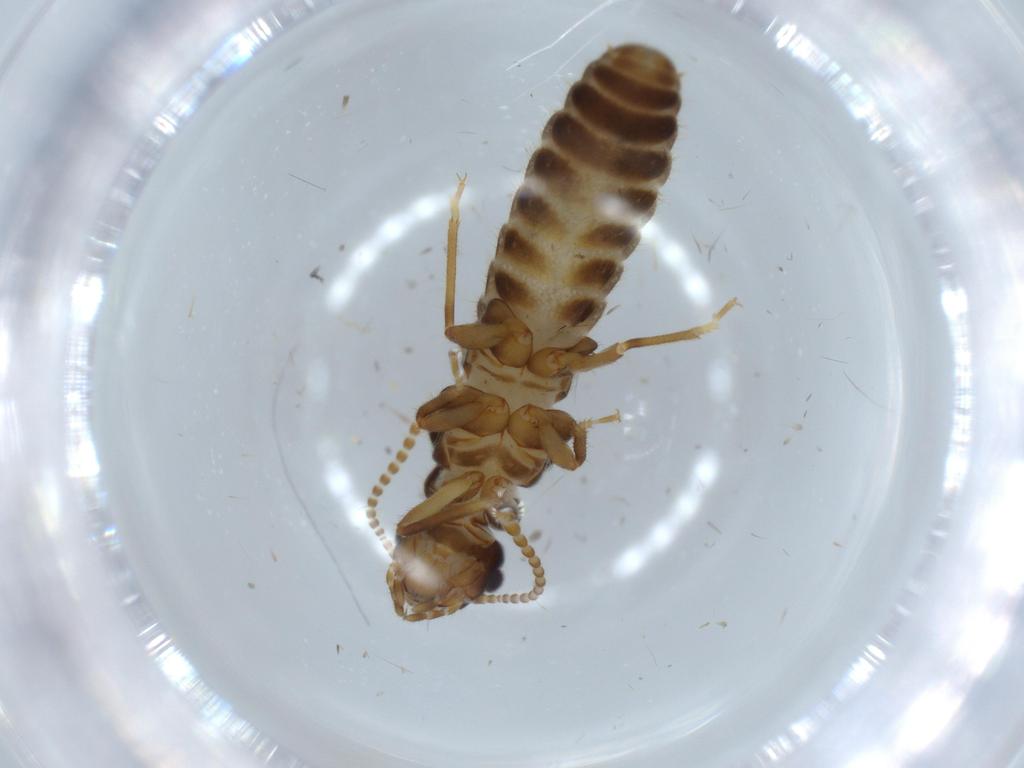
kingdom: Animalia
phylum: Arthropoda
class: Insecta
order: Blattodea
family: Termitidae
